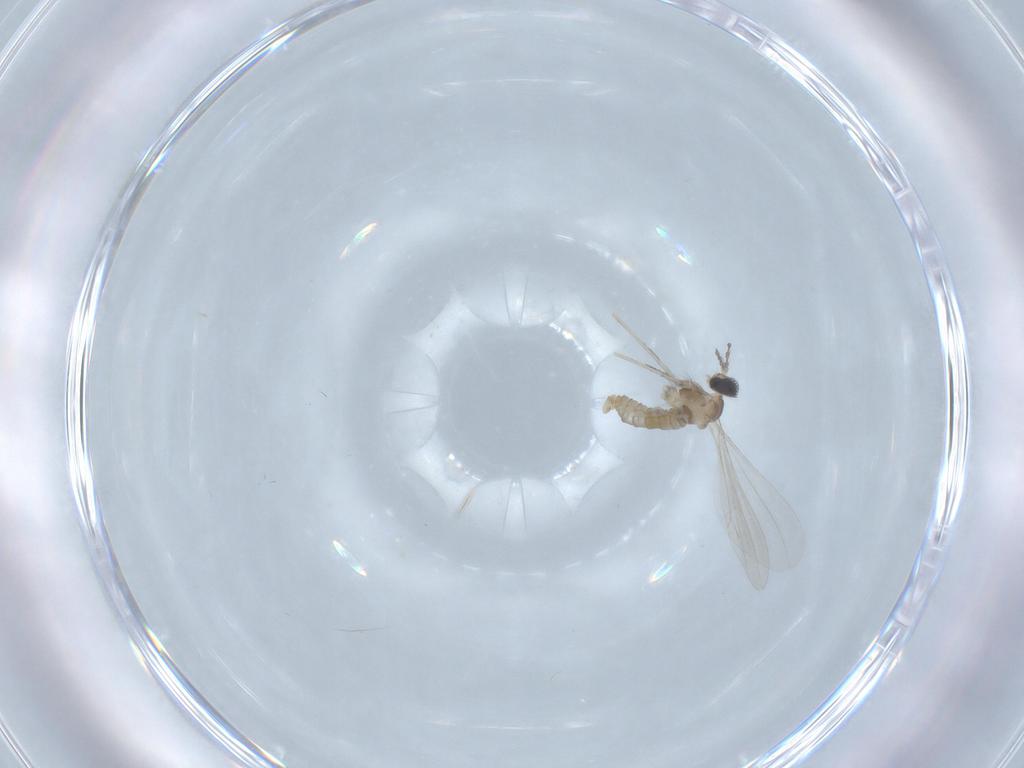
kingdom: Animalia
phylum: Arthropoda
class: Insecta
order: Diptera
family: Cecidomyiidae
